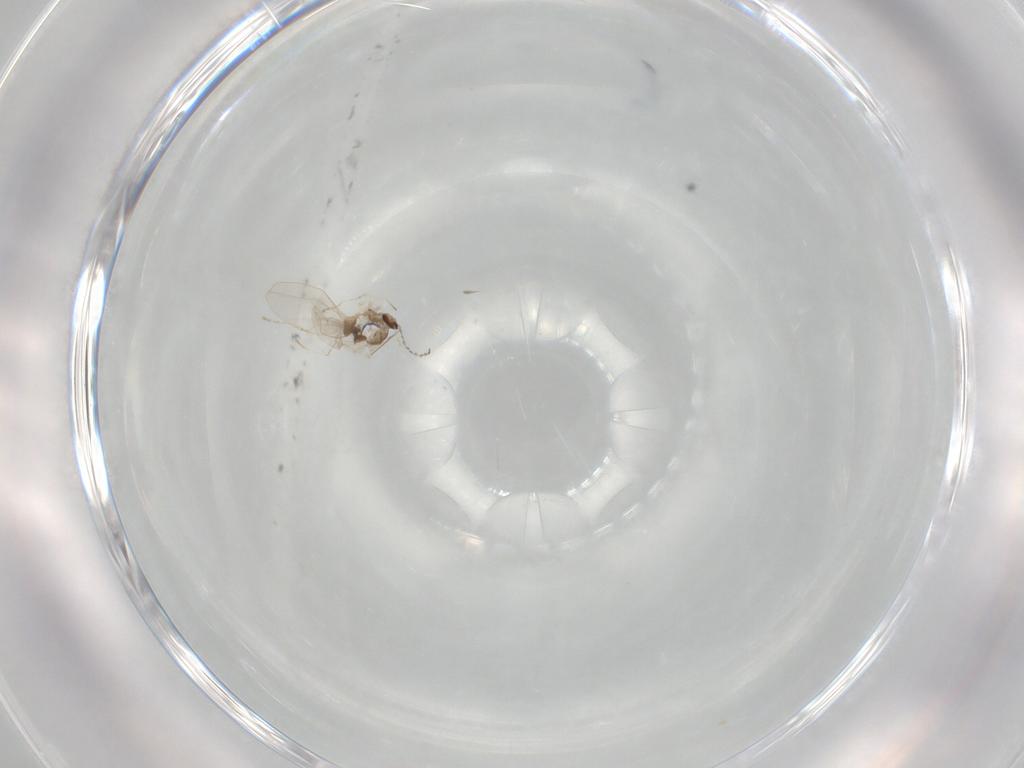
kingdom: Animalia
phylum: Arthropoda
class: Insecta
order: Diptera
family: Cecidomyiidae
